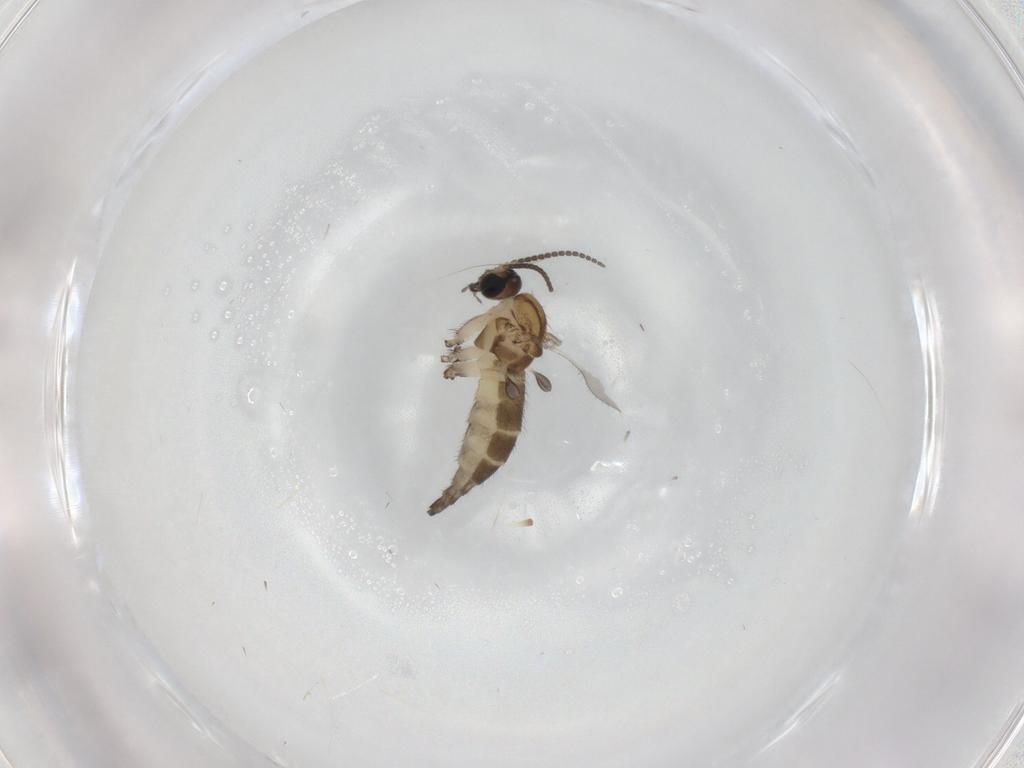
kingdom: Animalia
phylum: Arthropoda
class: Insecta
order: Diptera
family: Sciaridae
